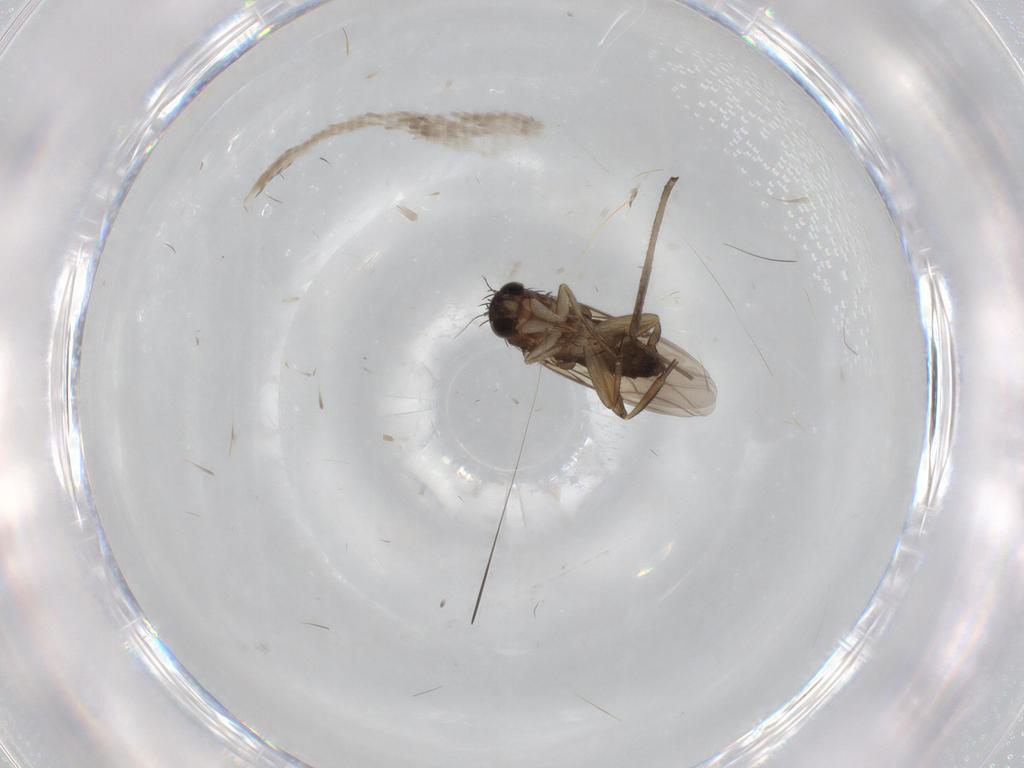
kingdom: Animalia
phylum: Arthropoda
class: Insecta
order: Diptera
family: Phoridae
